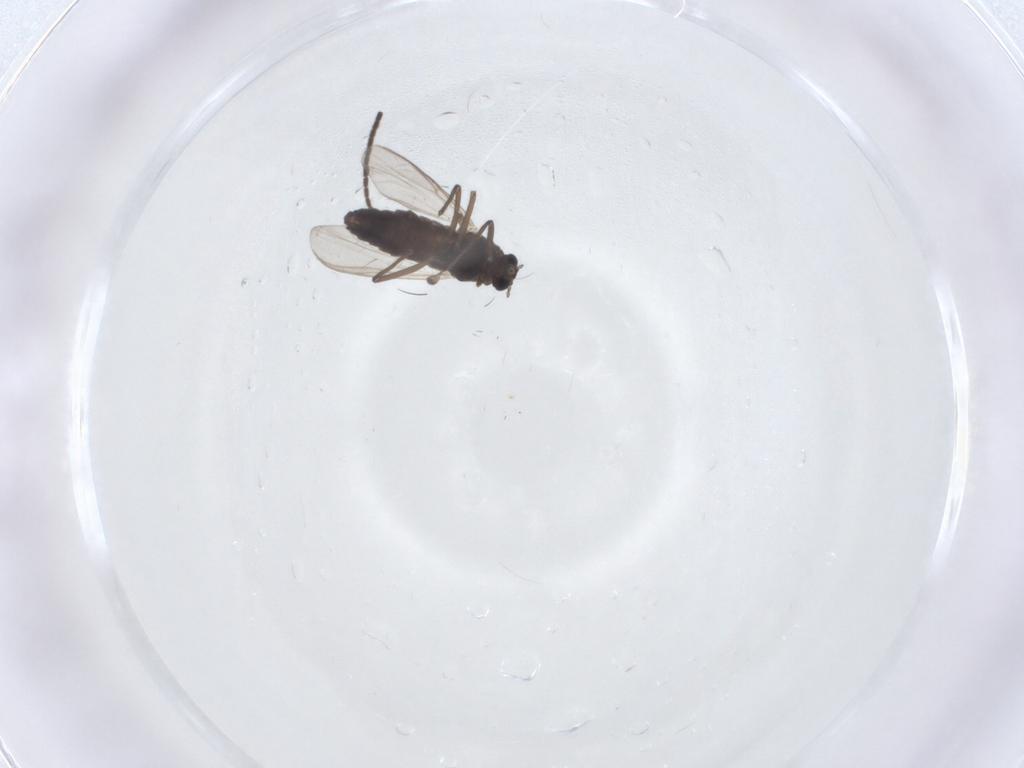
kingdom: Animalia
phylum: Arthropoda
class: Insecta
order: Diptera
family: Sciaridae
